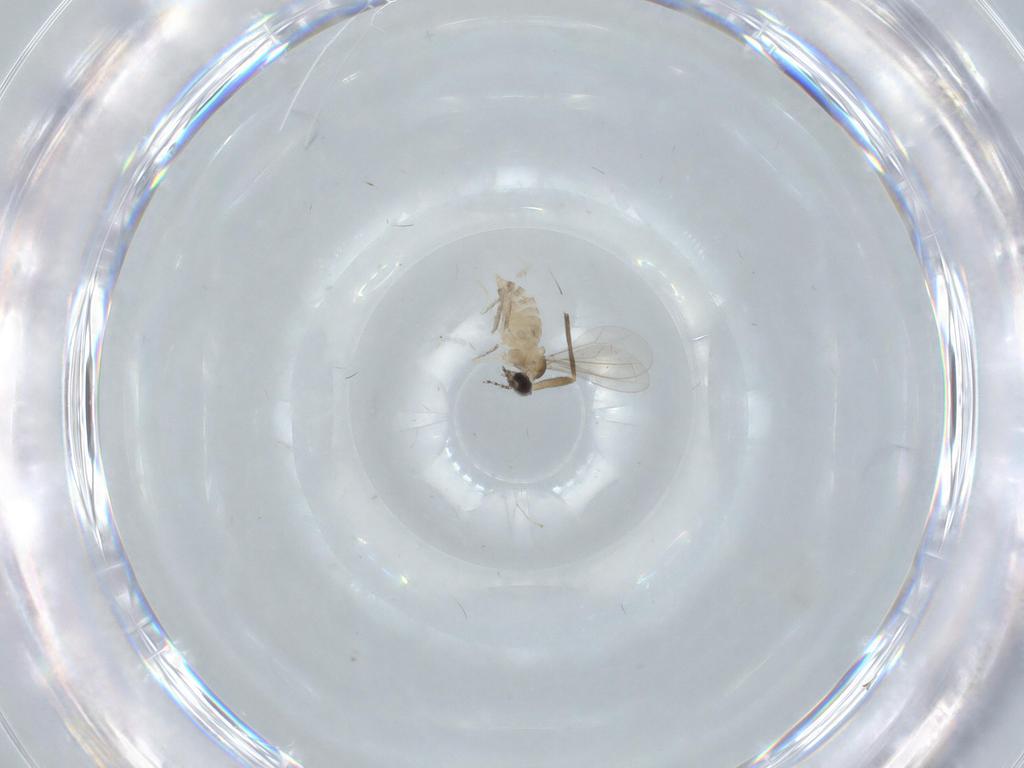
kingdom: Animalia
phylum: Arthropoda
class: Insecta
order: Diptera
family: Cecidomyiidae
